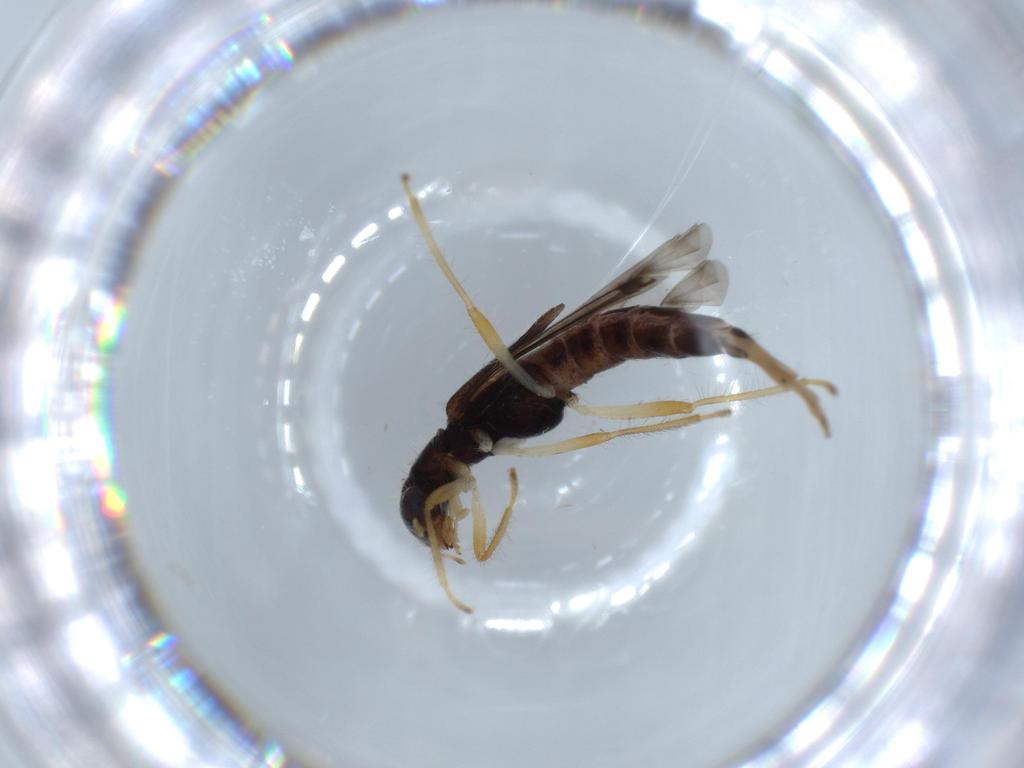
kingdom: Animalia
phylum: Arthropoda
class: Insecta
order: Coleoptera
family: Cleridae
